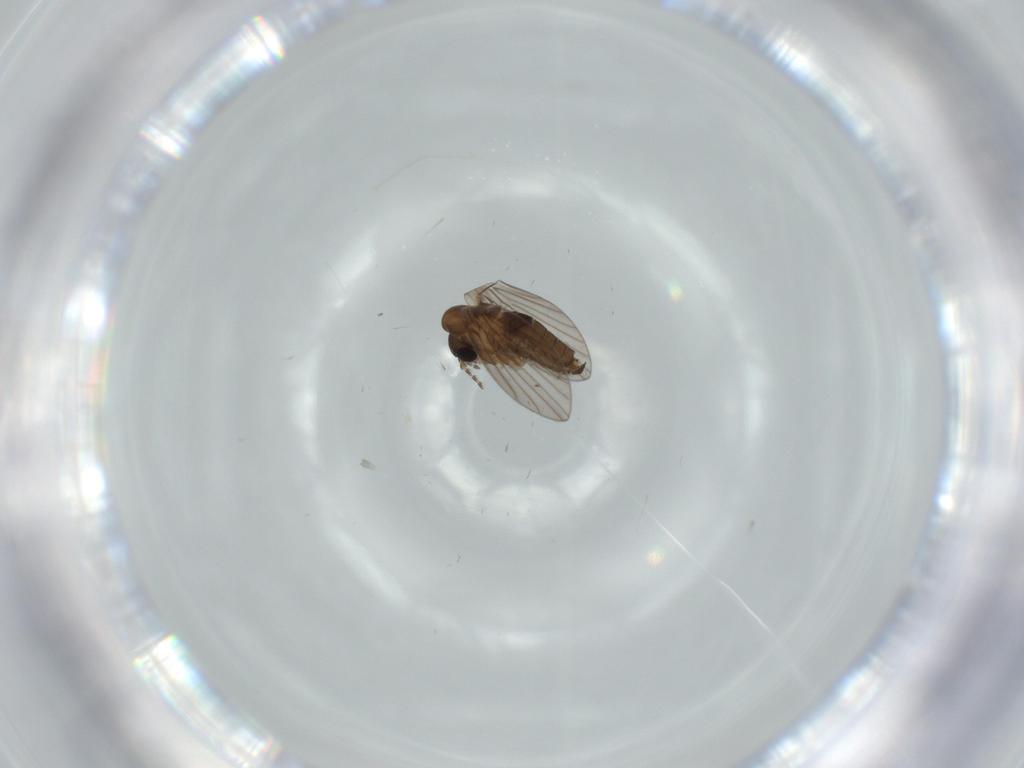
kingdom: Animalia
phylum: Arthropoda
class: Insecta
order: Diptera
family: Psychodidae
